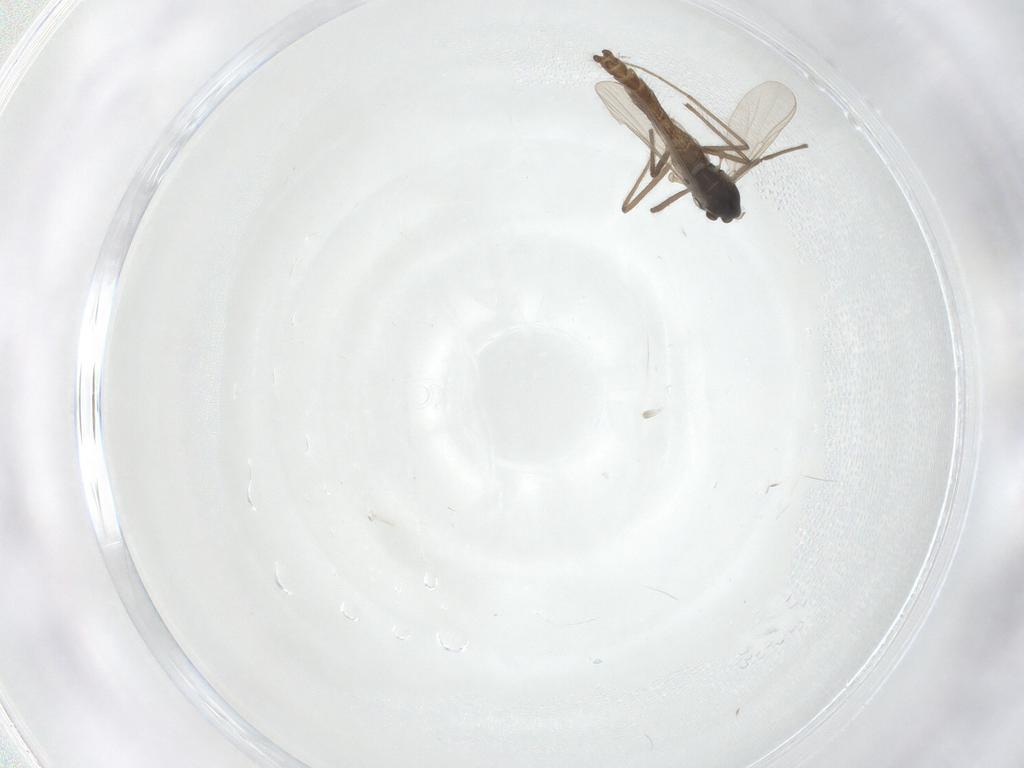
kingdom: Animalia
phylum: Arthropoda
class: Insecta
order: Diptera
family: Chironomidae
